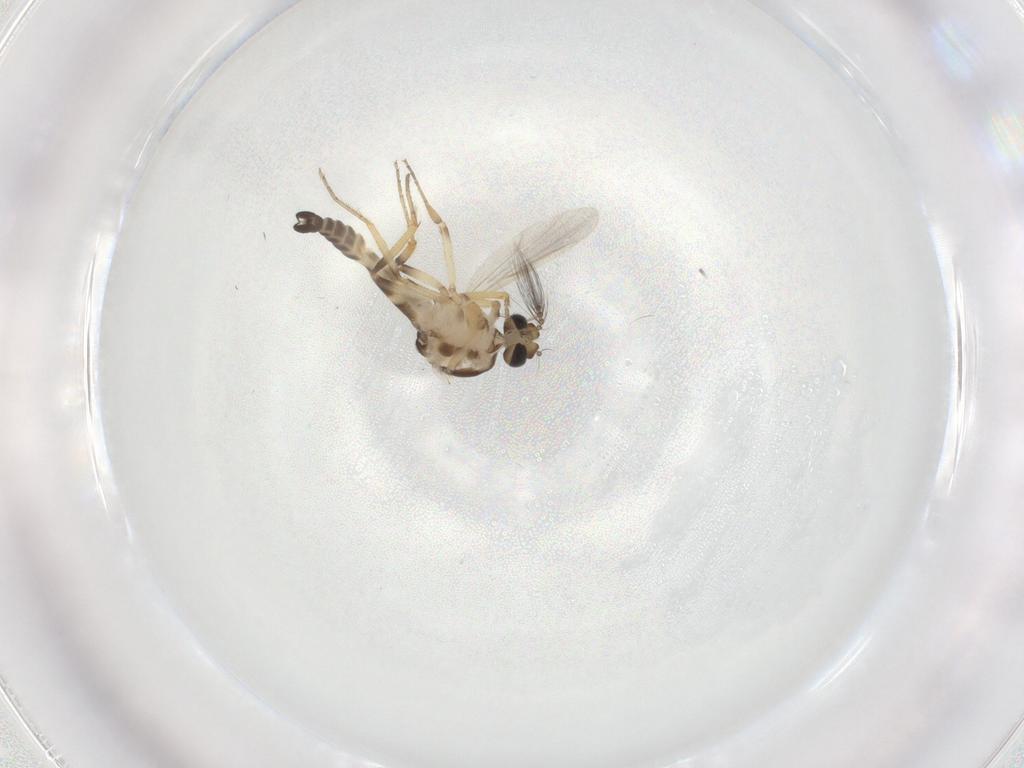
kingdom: Animalia
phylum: Arthropoda
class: Insecta
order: Diptera
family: Ceratopogonidae
